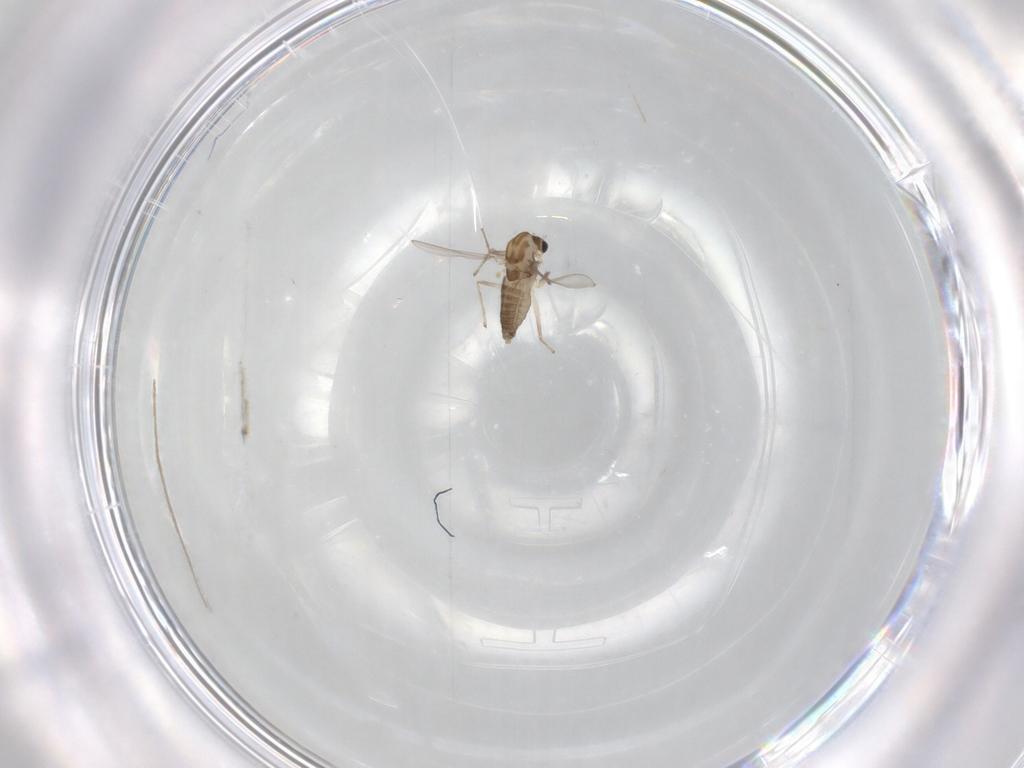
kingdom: Animalia
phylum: Arthropoda
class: Insecta
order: Diptera
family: Chironomidae
